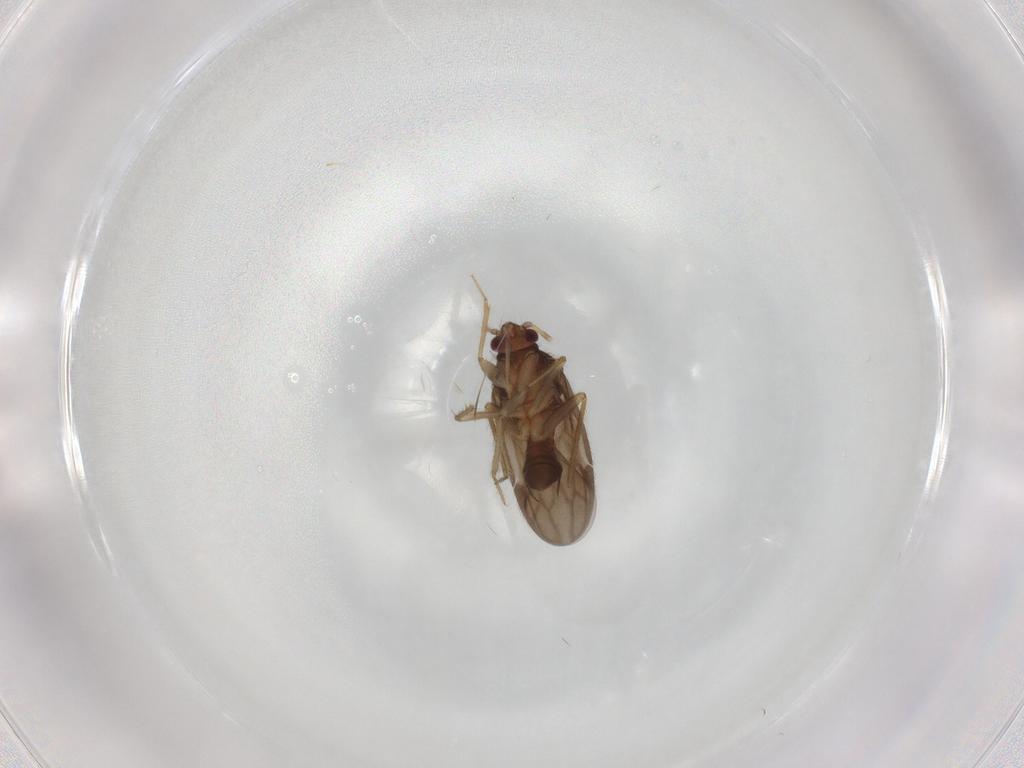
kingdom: Animalia
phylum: Arthropoda
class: Insecta
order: Hemiptera
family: Ceratocombidae
